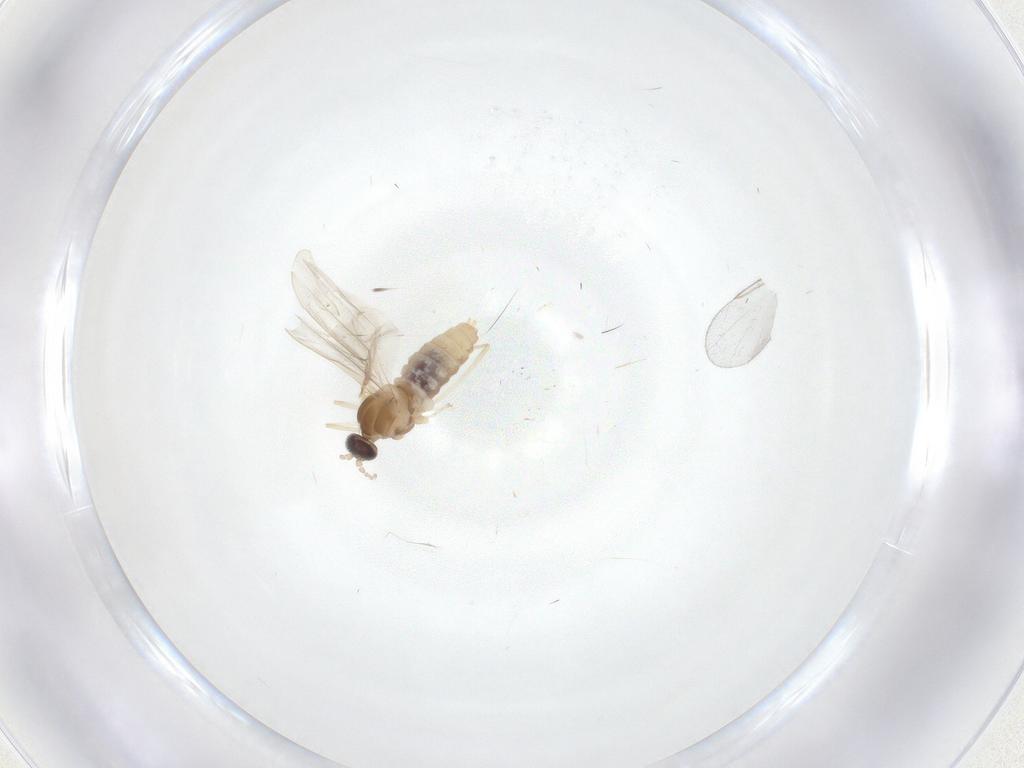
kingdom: Animalia
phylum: Arthropoda
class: Insecta
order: Diptera
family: Cecidomyiidae
